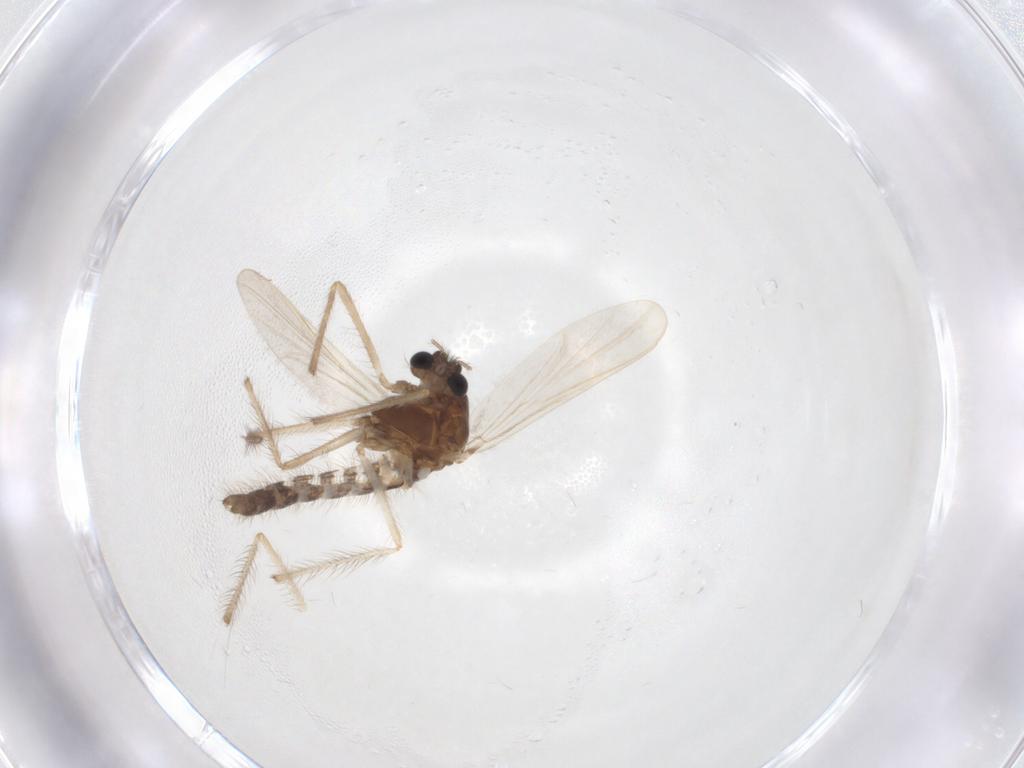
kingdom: Animalia
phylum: Arthropoda
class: Insecta
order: Diptera
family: Chironomidae
